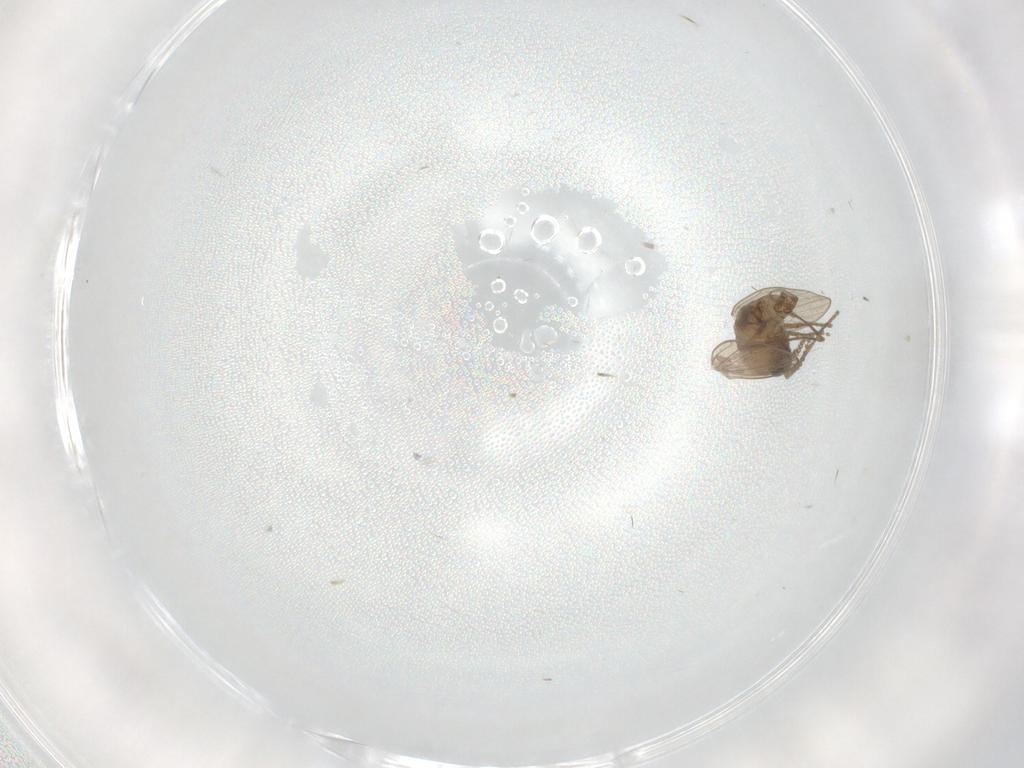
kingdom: Animalia
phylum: Arthropoda
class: Insecta
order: Diptera
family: Psychodidae
